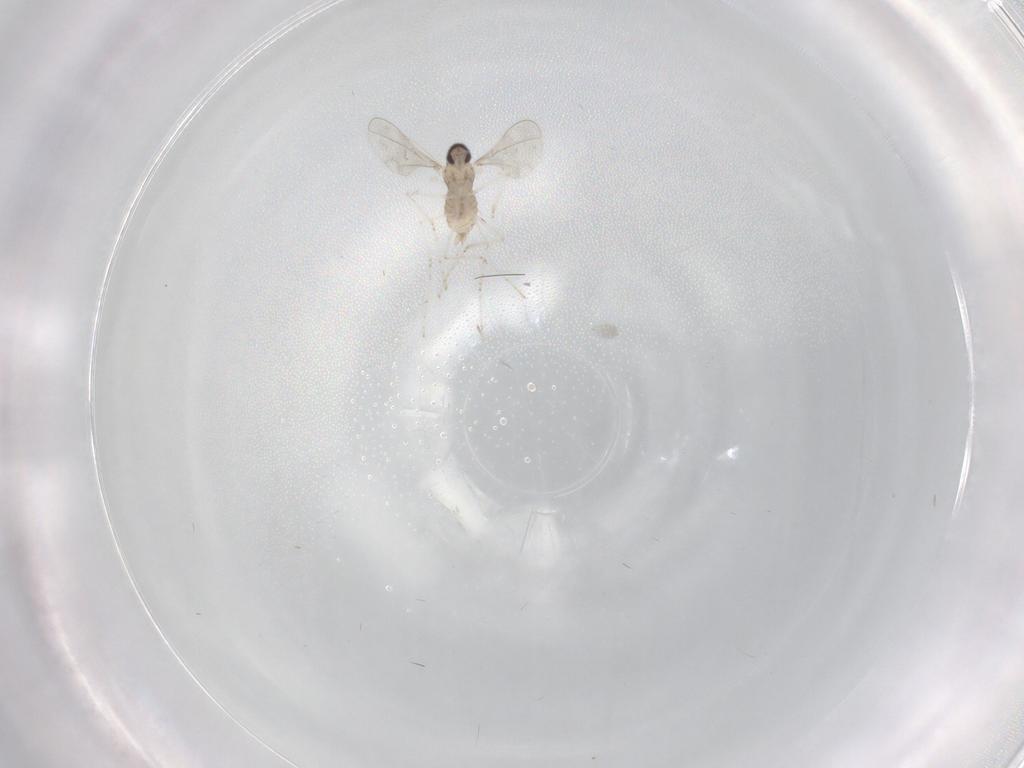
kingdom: Animalia
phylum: Arthropoda
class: Insecta
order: Diptera
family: Cecidomyiidae
